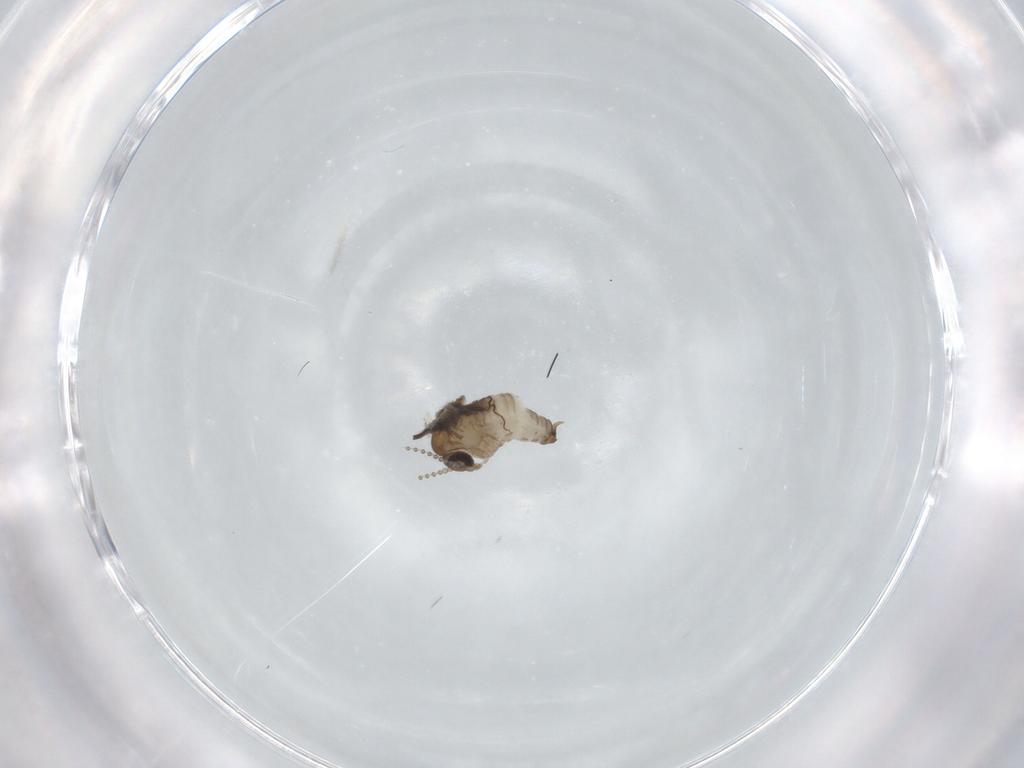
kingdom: Animalia
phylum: Arthropoda
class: Insecta
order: Diptera
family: Psychodidae
